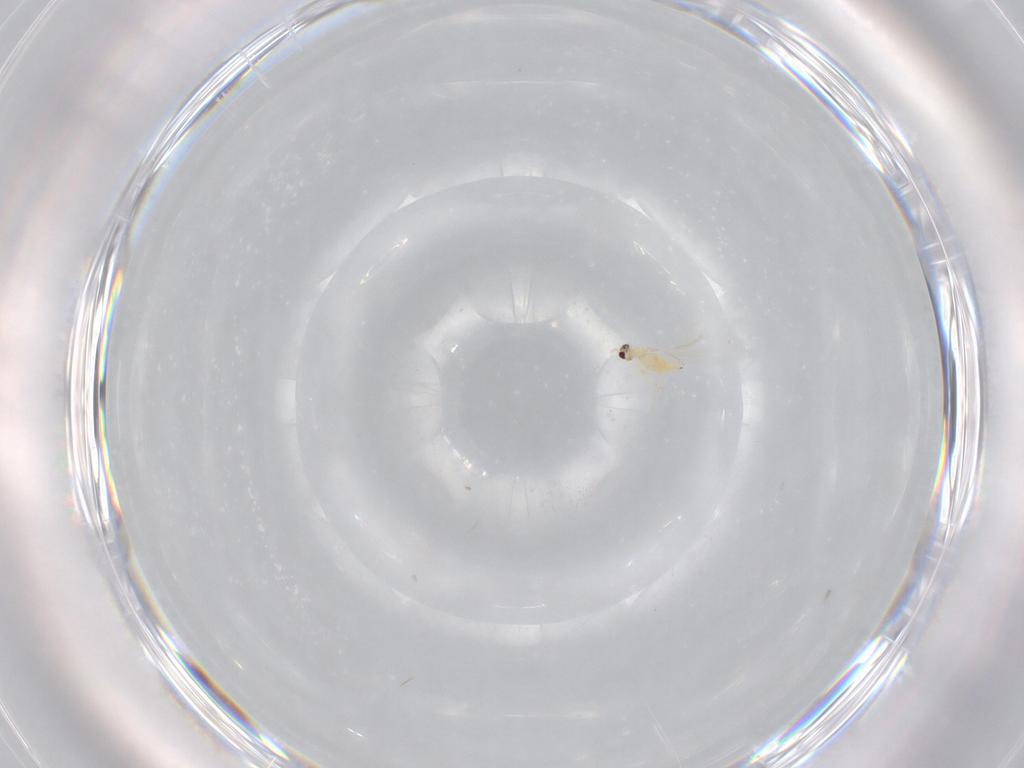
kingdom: Animalia
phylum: Arthropoda
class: Insecta
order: Hymenoptera
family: Mymaridae
